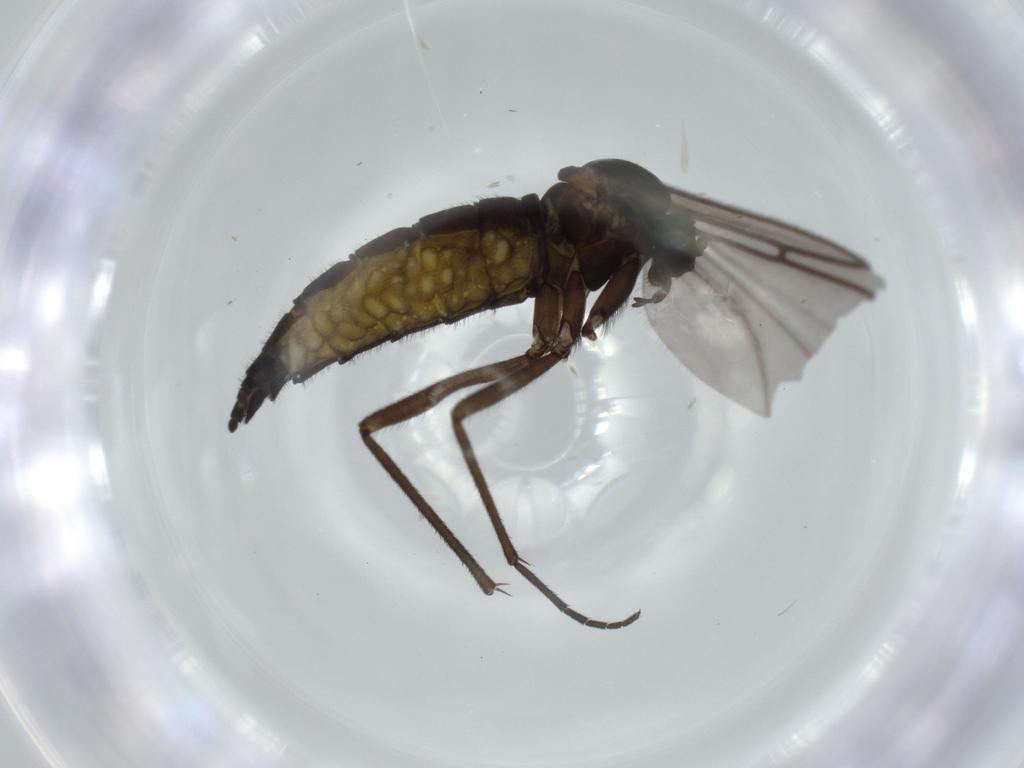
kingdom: Animalia
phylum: Arthropoda
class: Insecta
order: Diptera
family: Sciaridae
